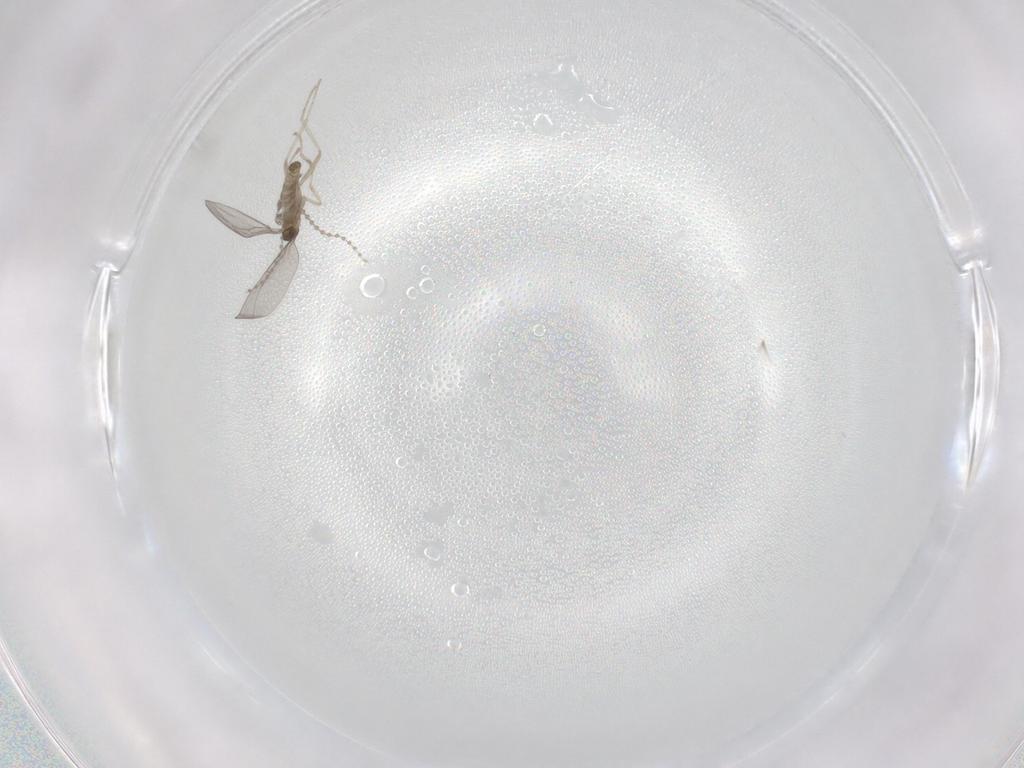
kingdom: Animalia
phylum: Arthropoda
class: Insecta
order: Diptera
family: Cecidomyiidae
